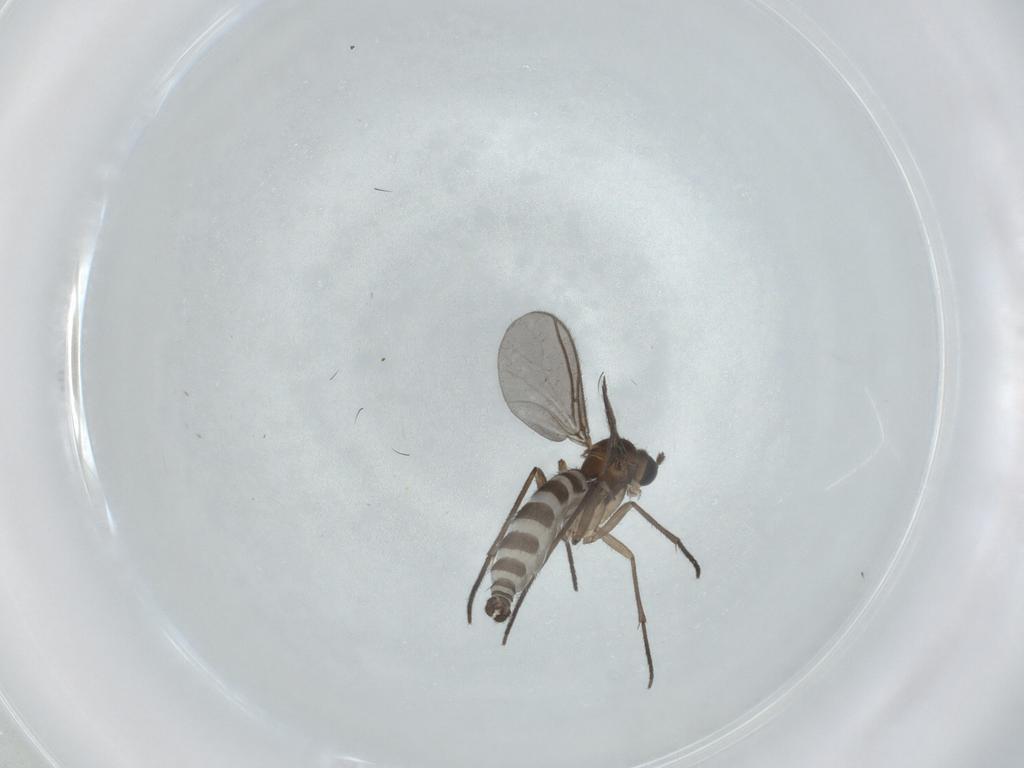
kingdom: Animalia
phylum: Arthropoda
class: Insecta
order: Diptera
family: Sciaridae
